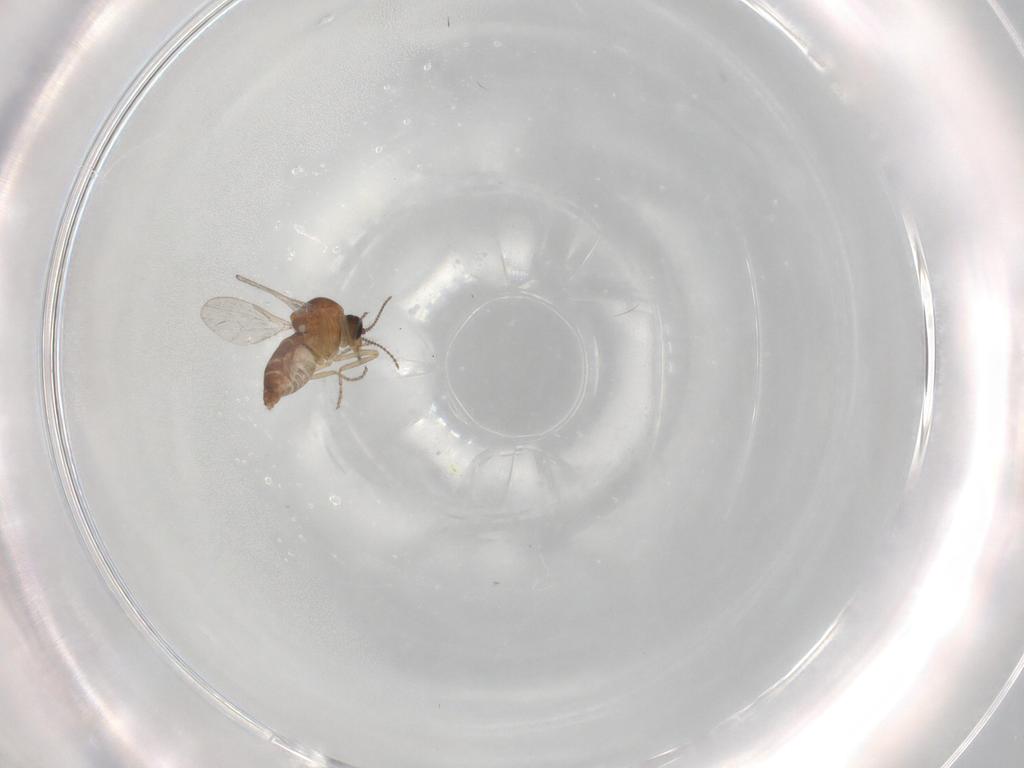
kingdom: Animalia
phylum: Arthropoda
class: Insecta
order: Diptera
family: Ceratopogonidae
